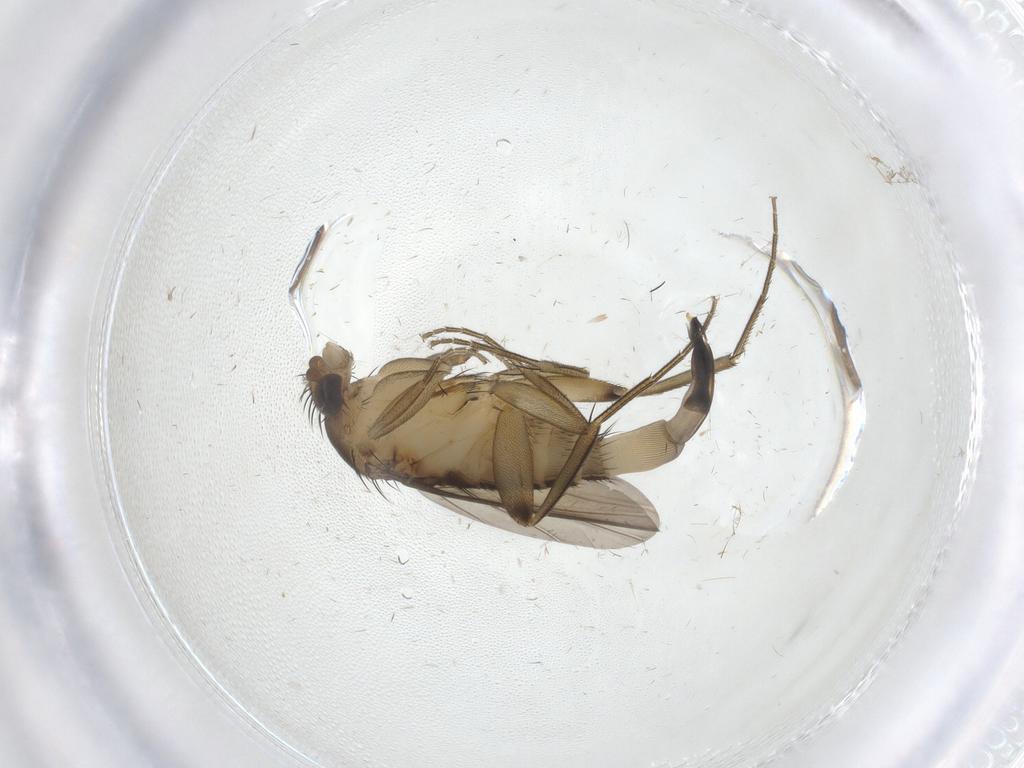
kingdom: Animalia
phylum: Arthropoda
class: Insecta
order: Diptera
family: Phoridae
